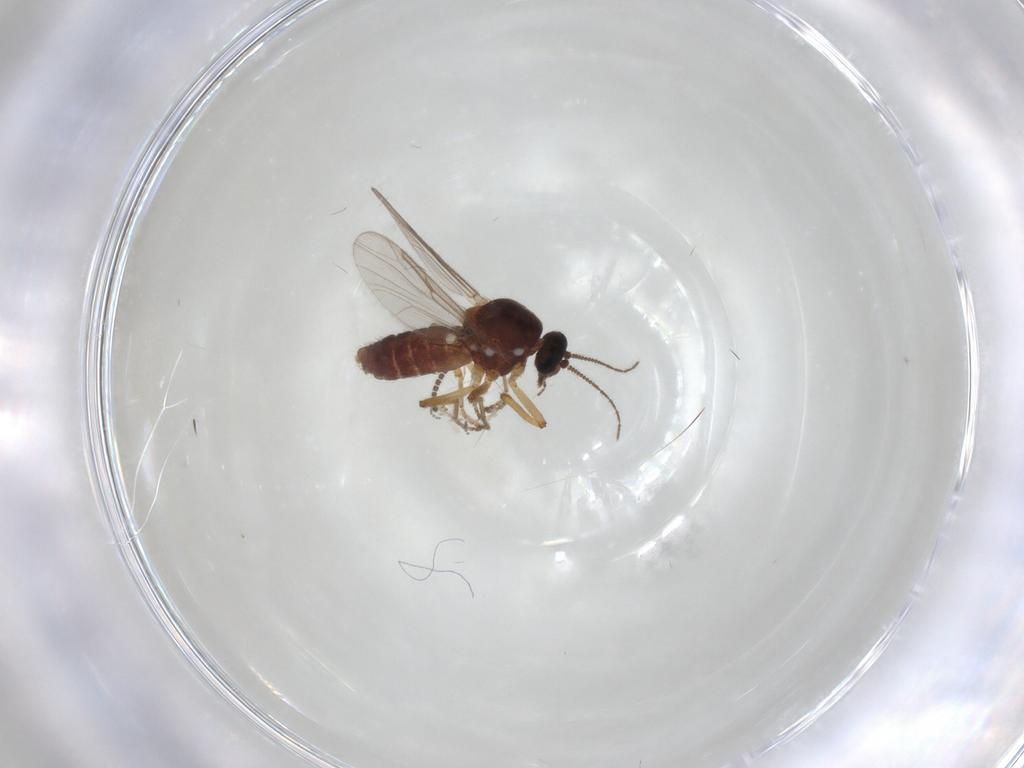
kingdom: Animalia
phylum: Arthropoda
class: Insecta
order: Diptera
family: Ceratopogonidae
